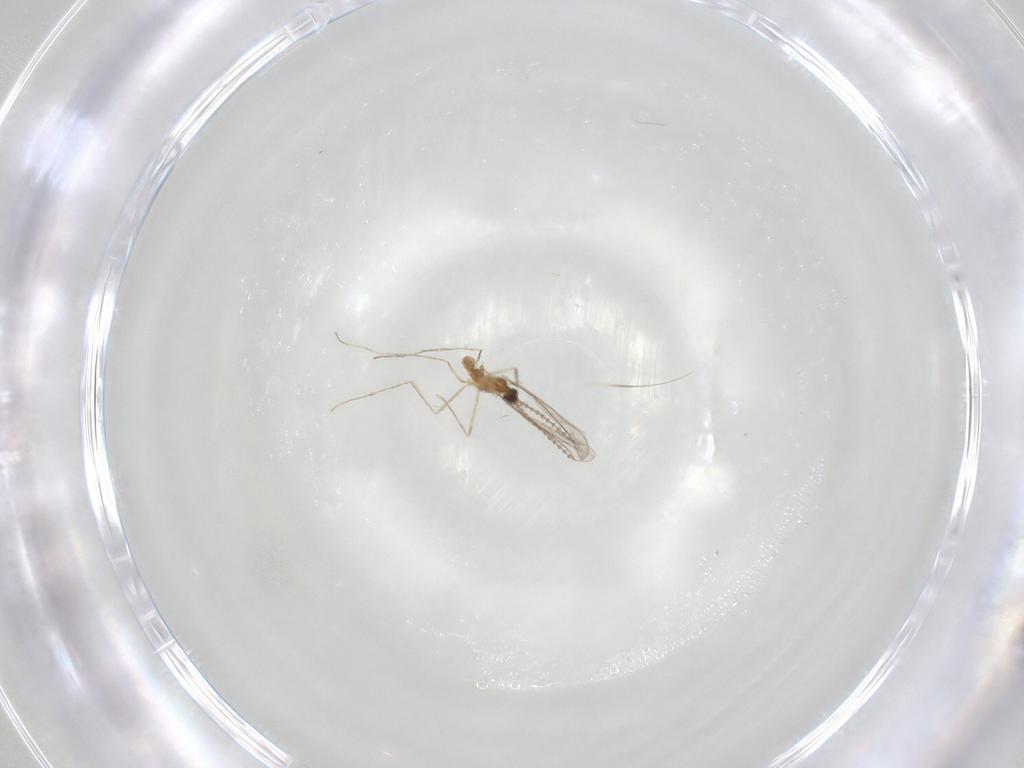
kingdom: Animalia
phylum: Arthropoda
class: Insecta
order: Diptera
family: Cecidomyiidae
